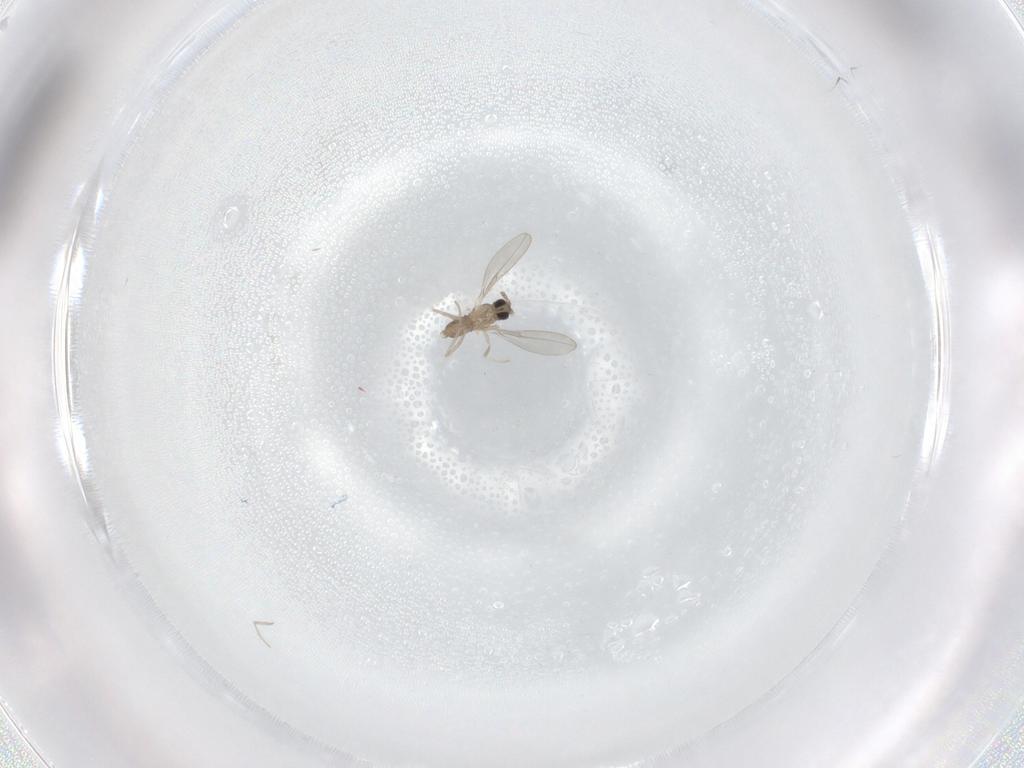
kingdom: Animalia
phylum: Arthropoda
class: Insecta
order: Diptera
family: Cecidomyiidae
